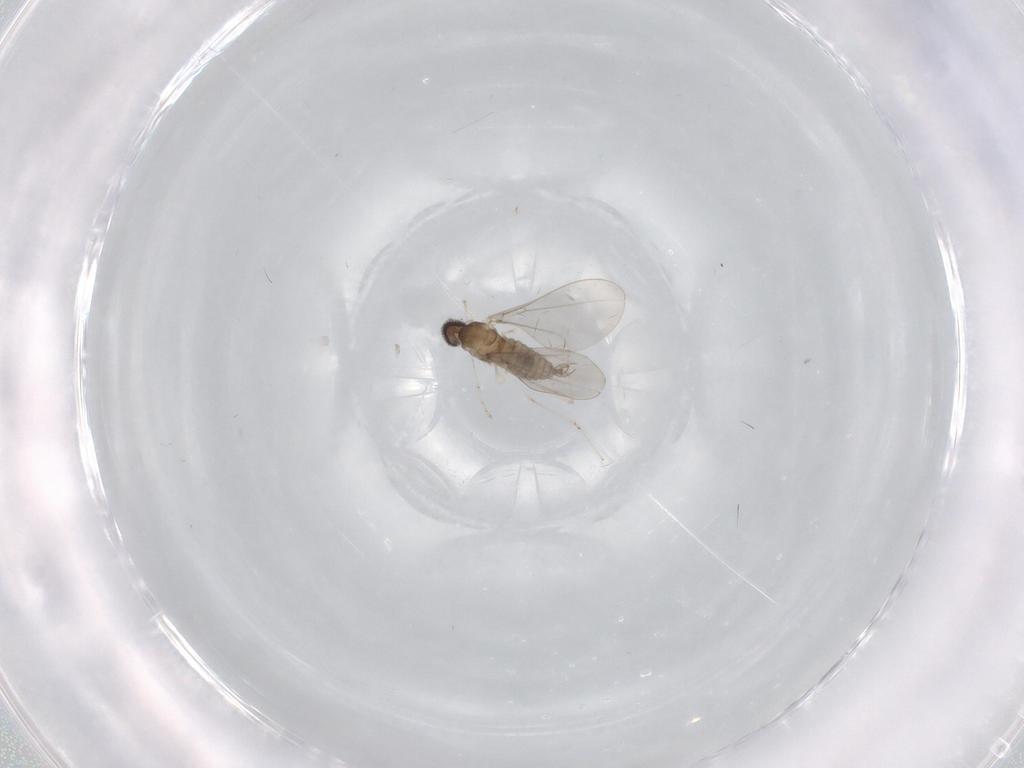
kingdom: Animalia
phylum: Arthropoda
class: Insecta
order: Diptera
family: Cecidomyiidae
